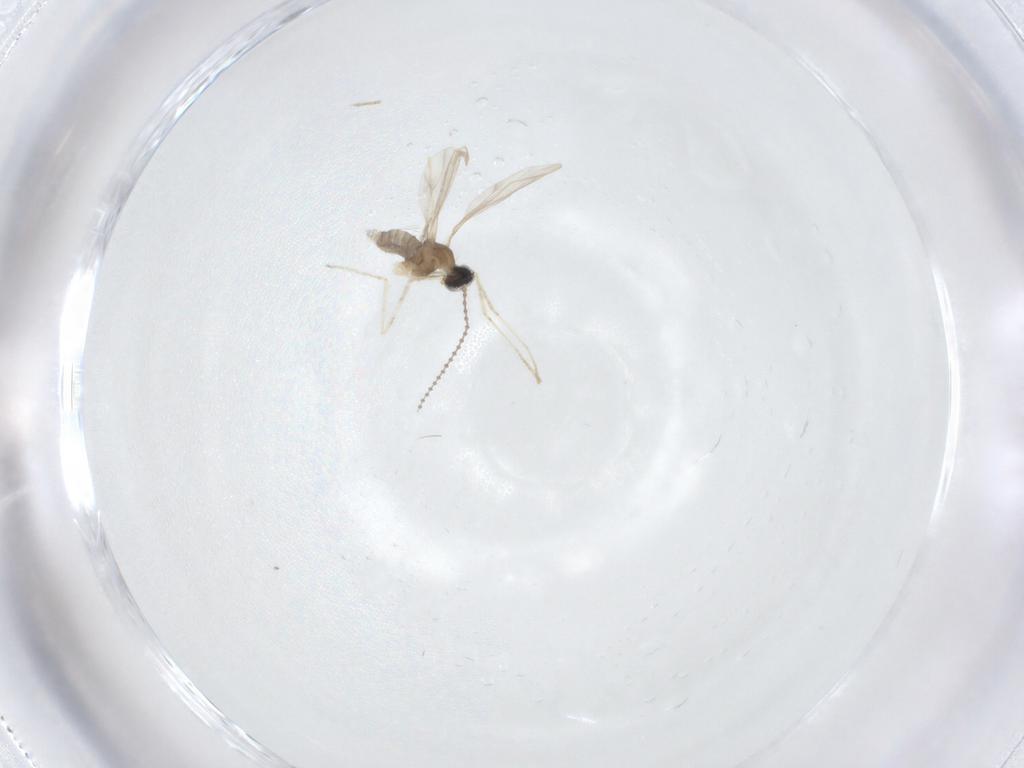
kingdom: Animalia
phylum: Arthropoda
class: Insecta
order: Diptera
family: Cecidomyiidae
